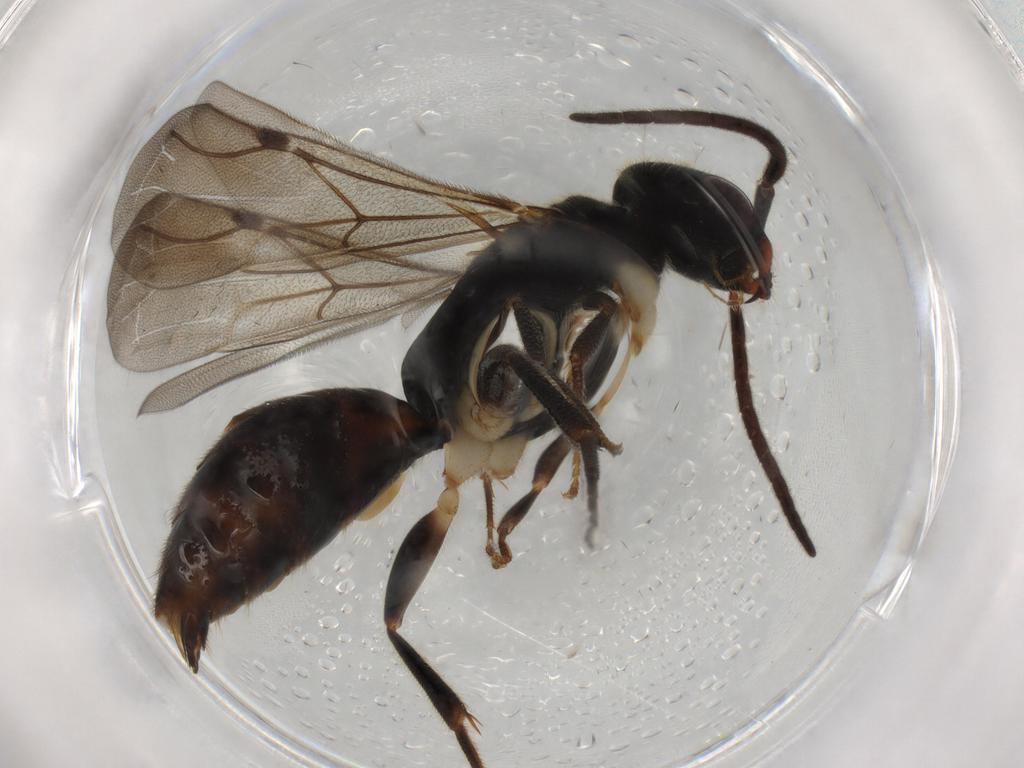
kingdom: Animalia
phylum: Arthropoda
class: Insecta
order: Hymenoptera
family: Bethylidae
